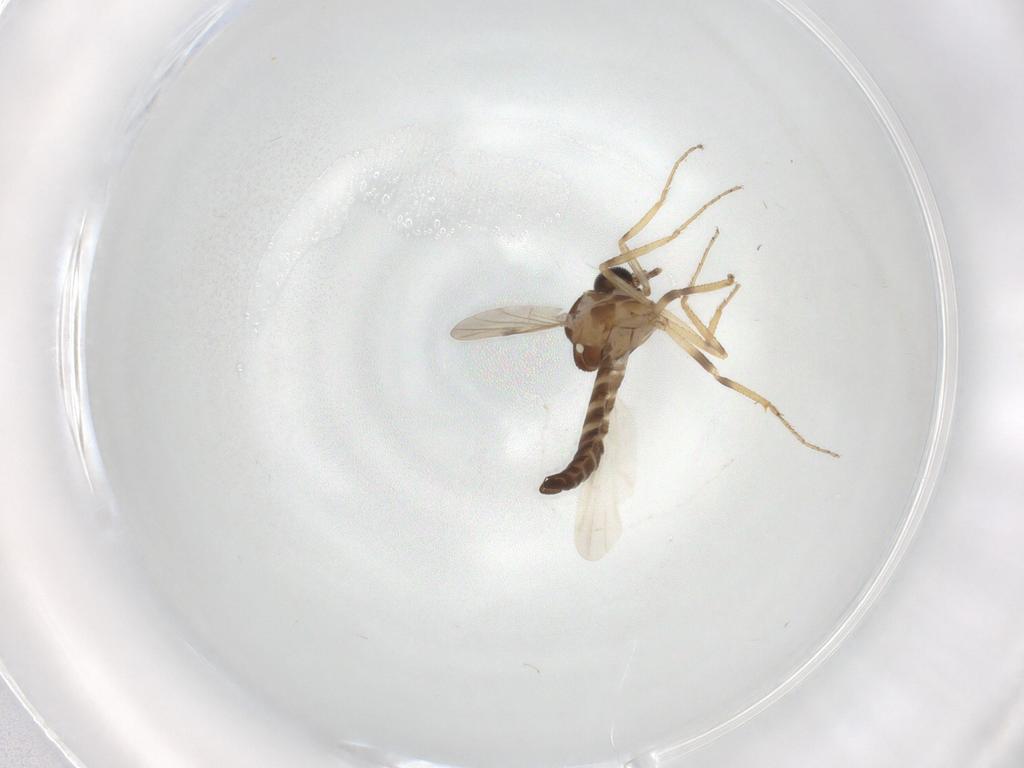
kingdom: Animalia
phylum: Arthropoda
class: Insecta
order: Diptera
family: Ceratopogonidae
